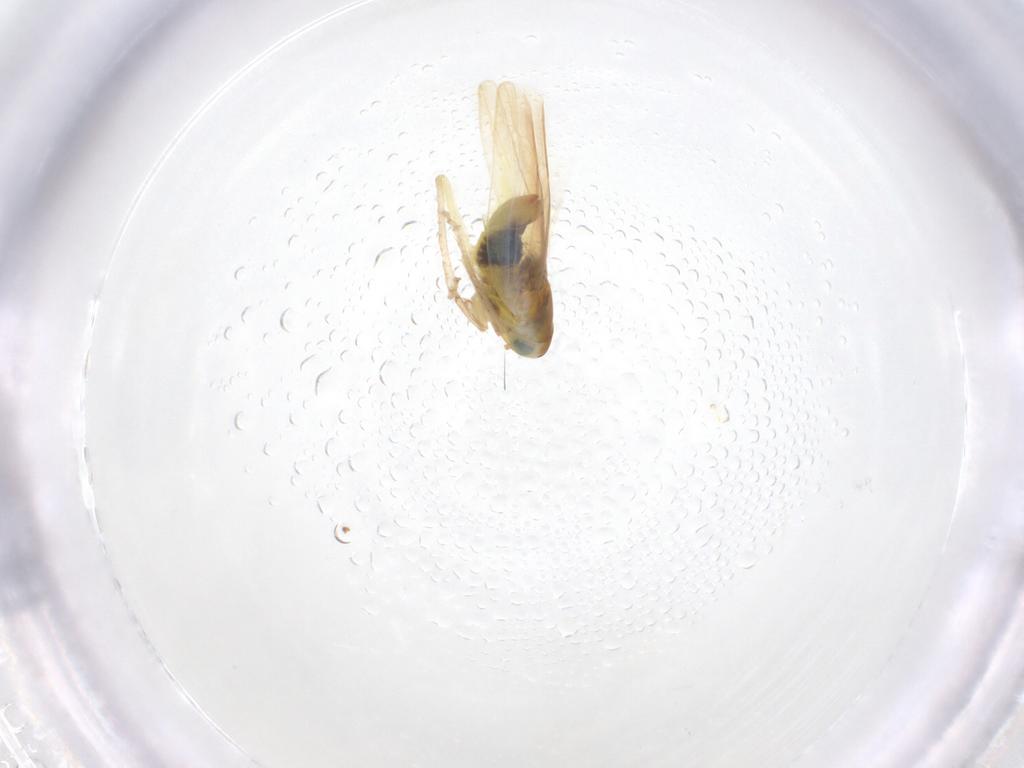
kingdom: Animalia
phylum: Arthropoda
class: Insecta
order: Hemiptera
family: Cicadellidae
